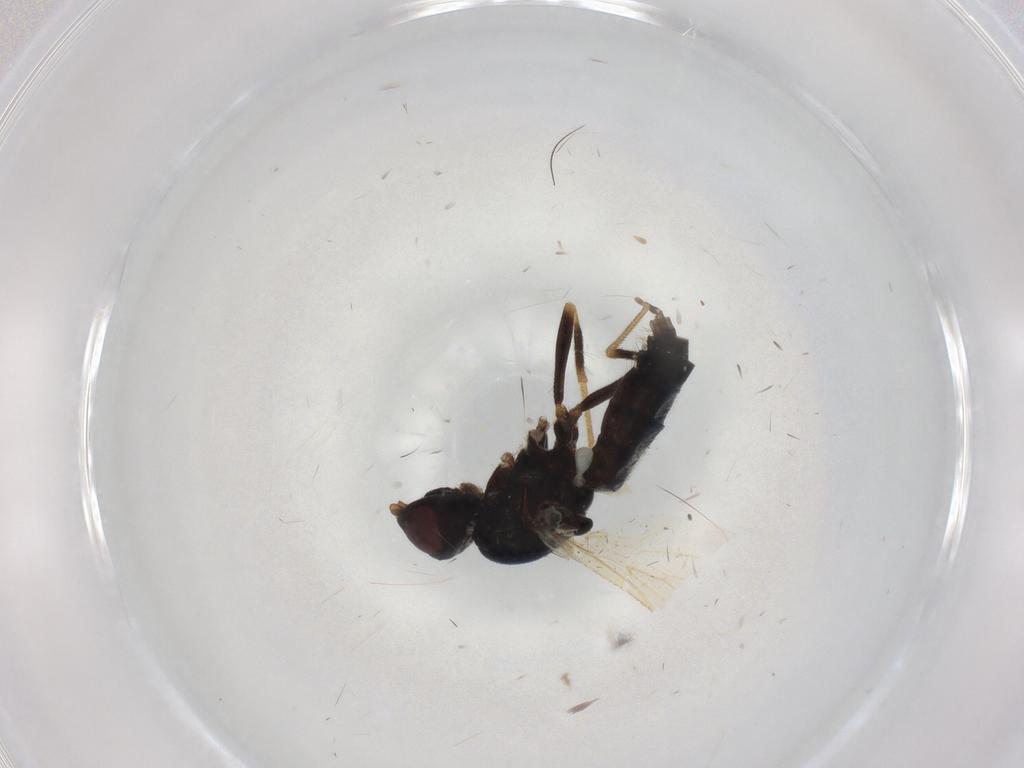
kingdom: Animalia
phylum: Arthropoda
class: Insecta
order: Diptera
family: Sciaridae
